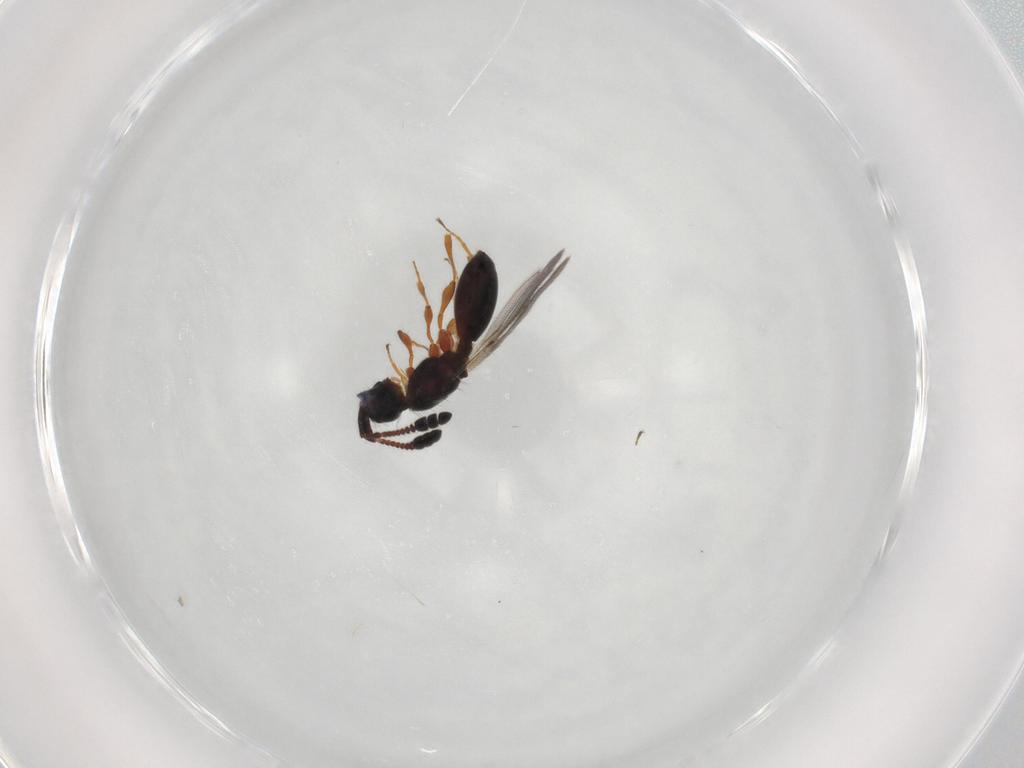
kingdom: Animalia
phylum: Arthropoda
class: Insecta
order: Hymenoptera
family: Diapriidae
